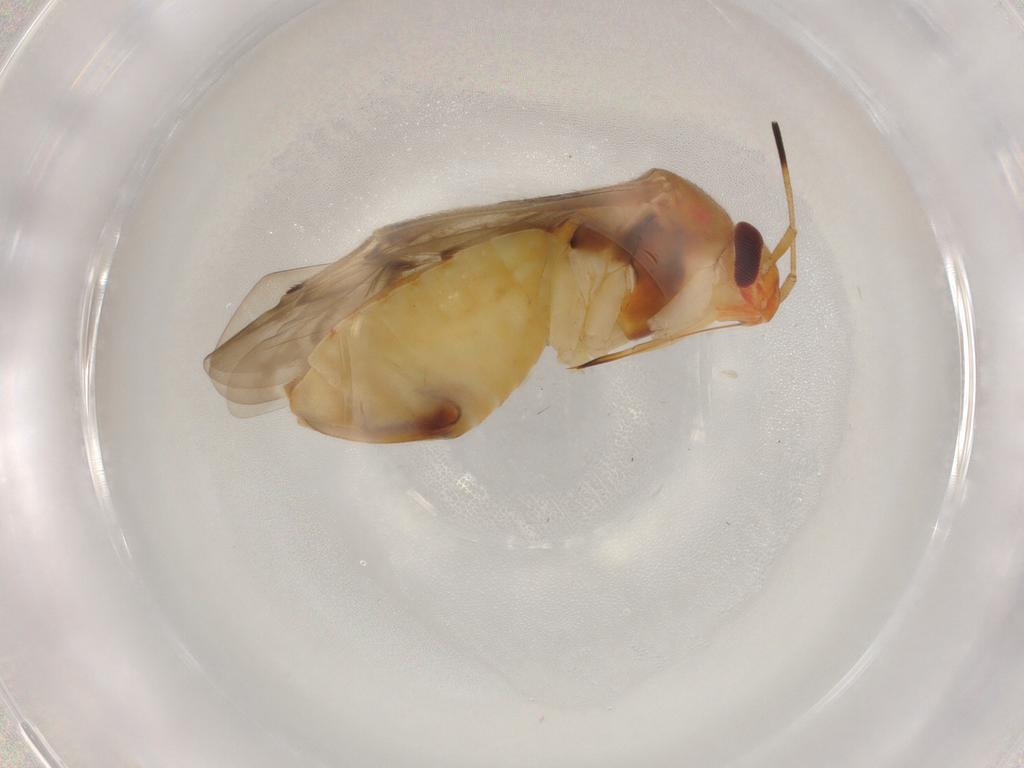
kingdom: Animalia
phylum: Arthropoda
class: Insecta
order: Hemiptera
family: Miridae
